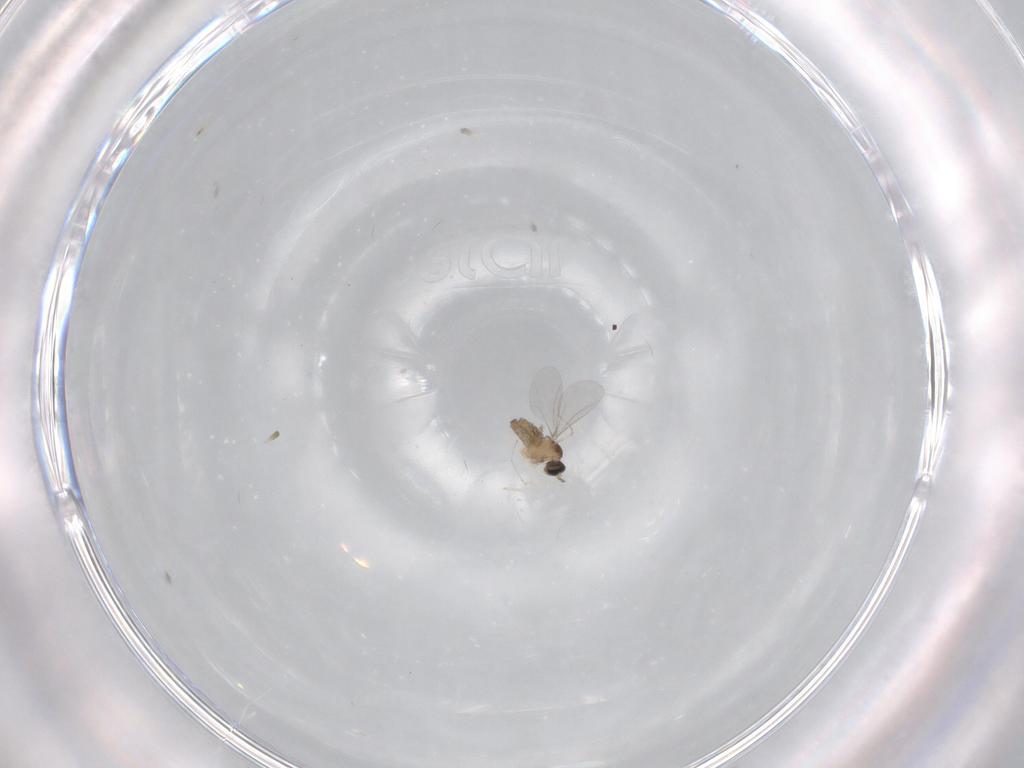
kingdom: Animalia
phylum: Arthropoda
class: Insecta
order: Diptera
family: Cecidomyiidae
